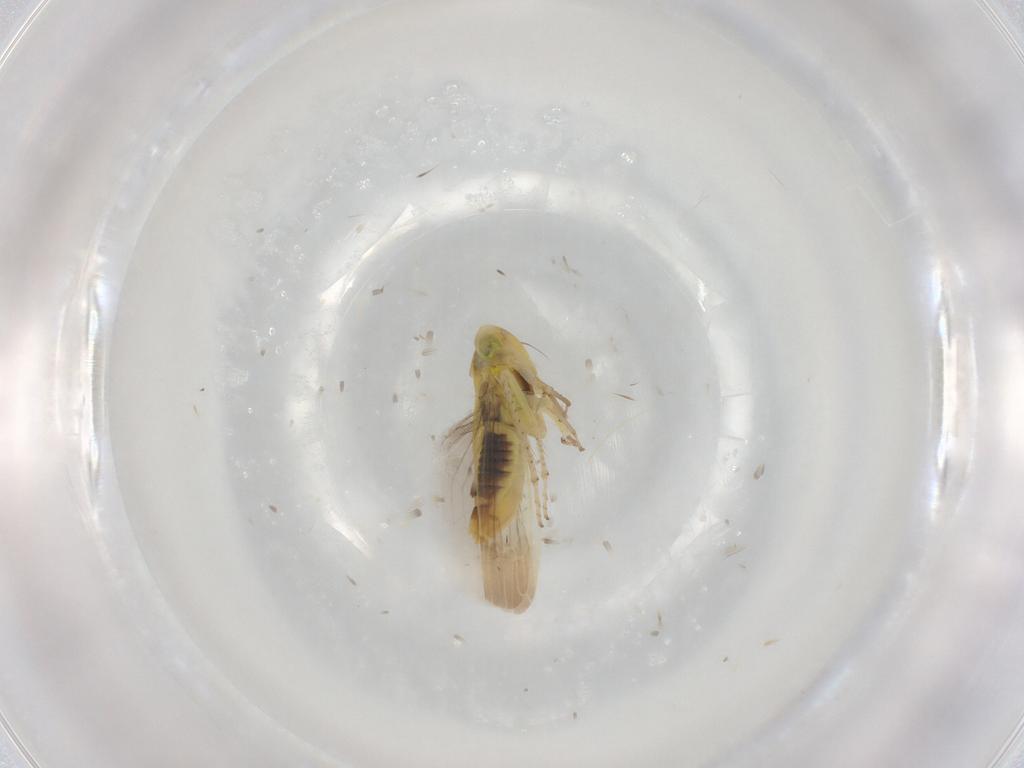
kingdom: Animalia
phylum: Arthropoda
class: Insecta
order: Hemiptera
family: Cicadellidae
